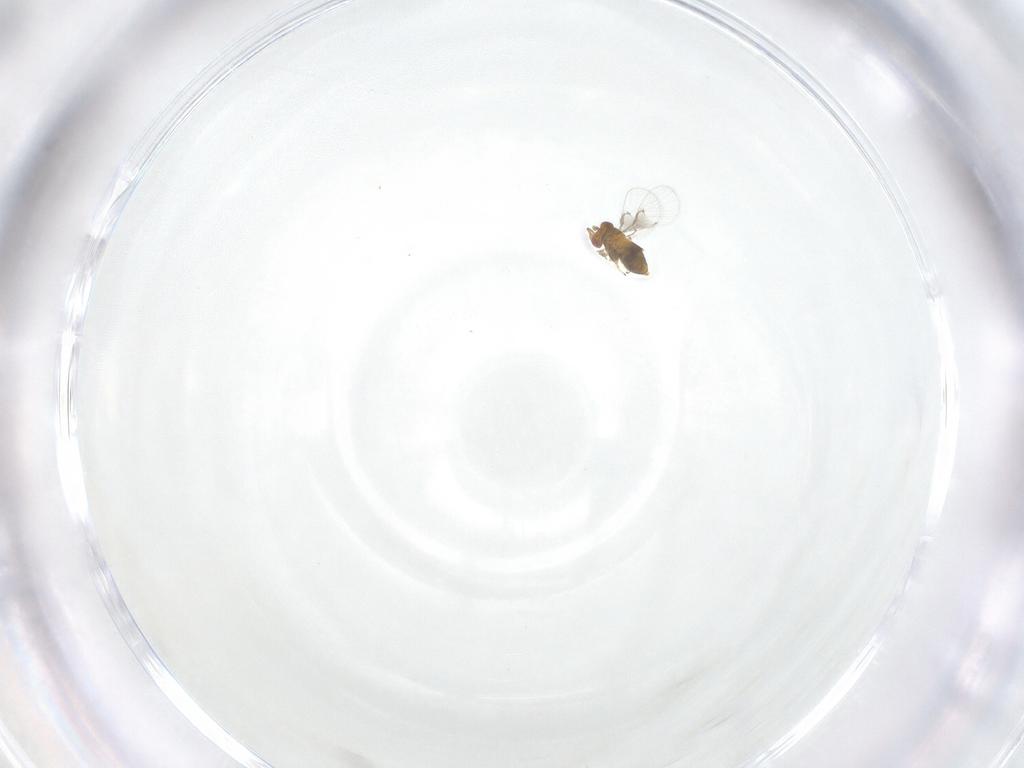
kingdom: Animalia
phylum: Arthropoda
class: Insecta
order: Hymenoptera
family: Trichogrammatidae
